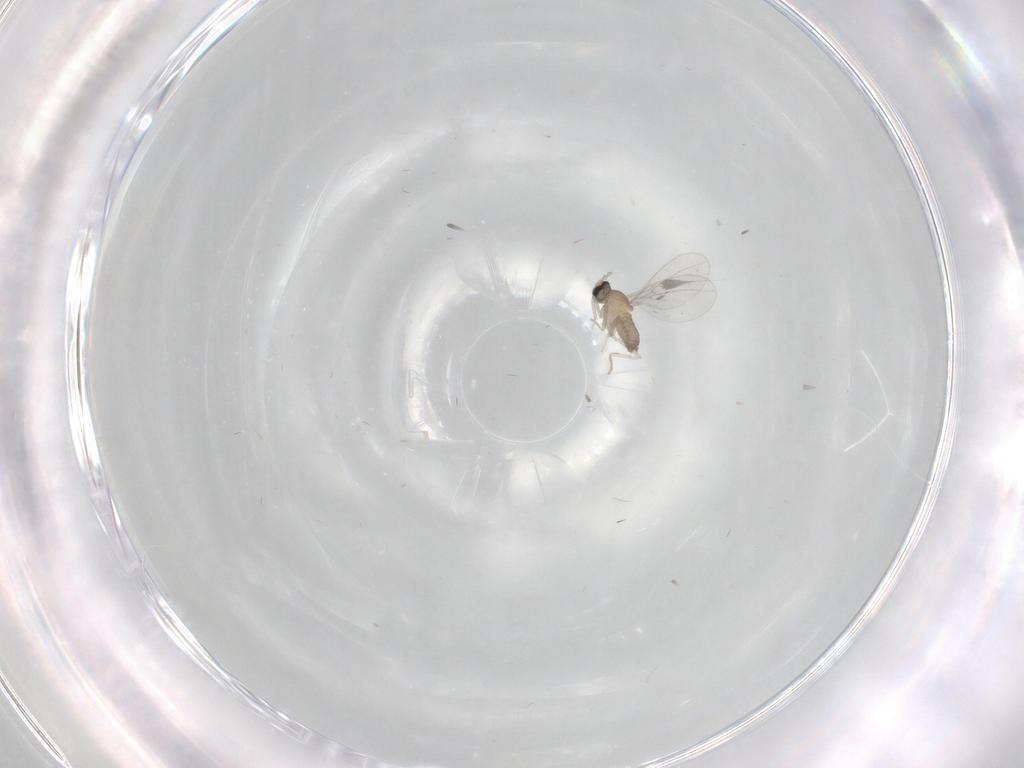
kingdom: Animalia
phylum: Arthropoda
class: Insecta
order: Diptera
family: Cecidomyiidae
